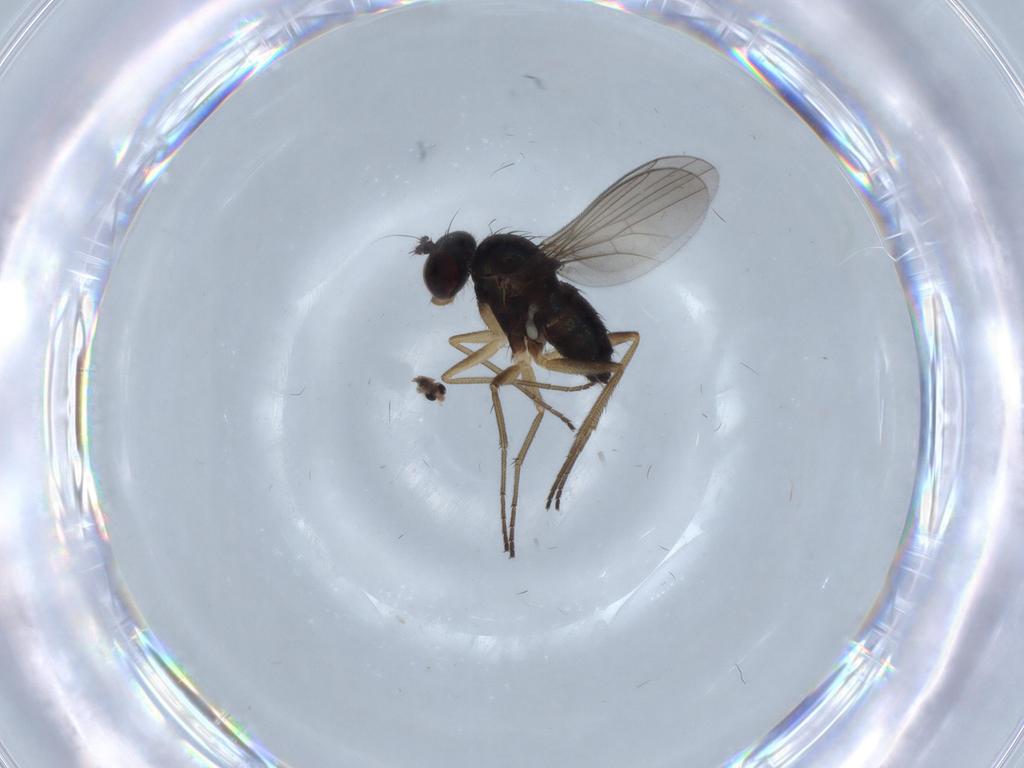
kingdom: Animalia
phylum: Arthropoda
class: Insecta
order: Diptera
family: Dolichopodidae
